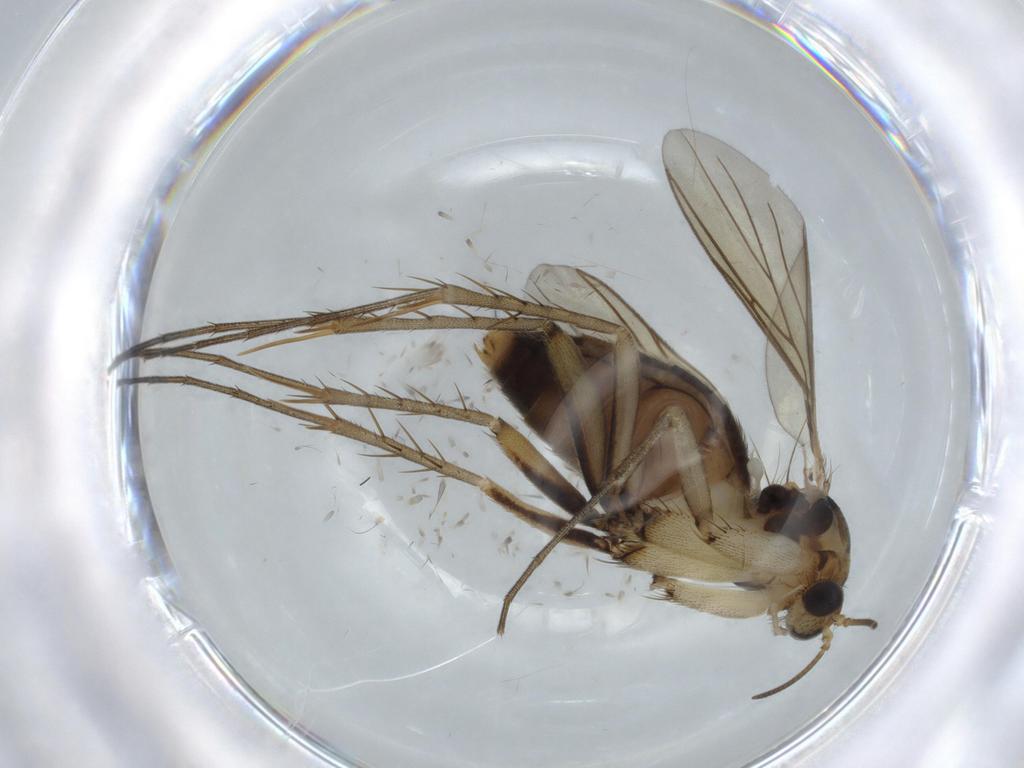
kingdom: Animalia
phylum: Arthropoda
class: Insecta
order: Diptera
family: Mycetophilidae
